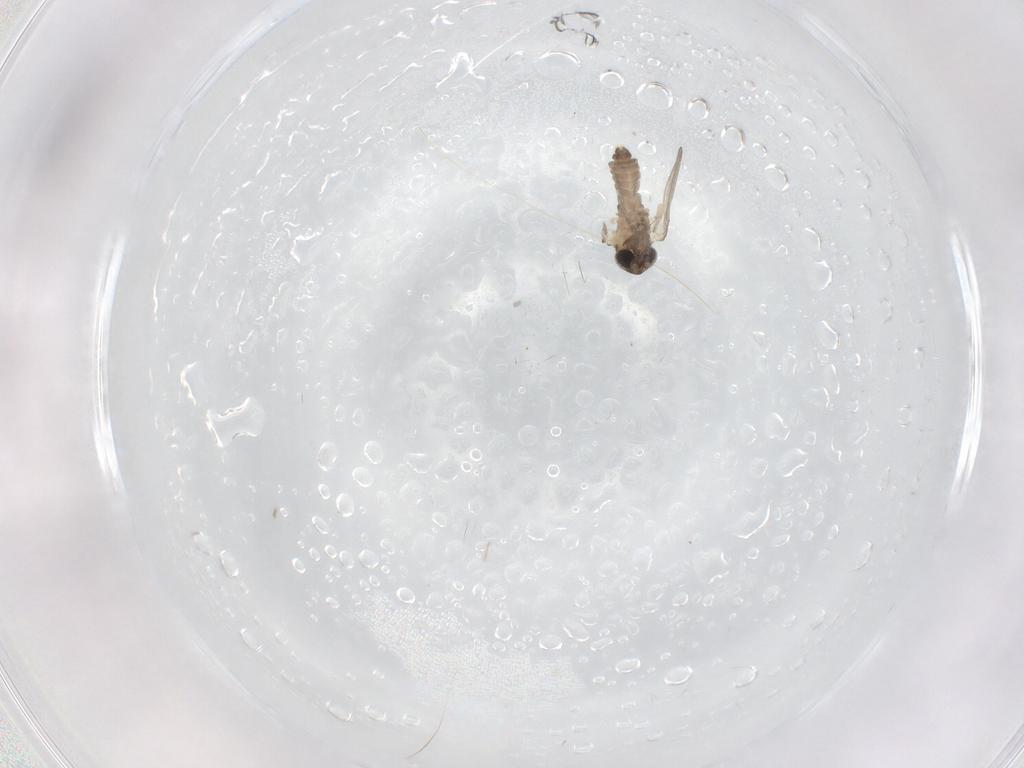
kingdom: Animalia
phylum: Arthropoda
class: Insecta
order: Diptera
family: Psychodidae
